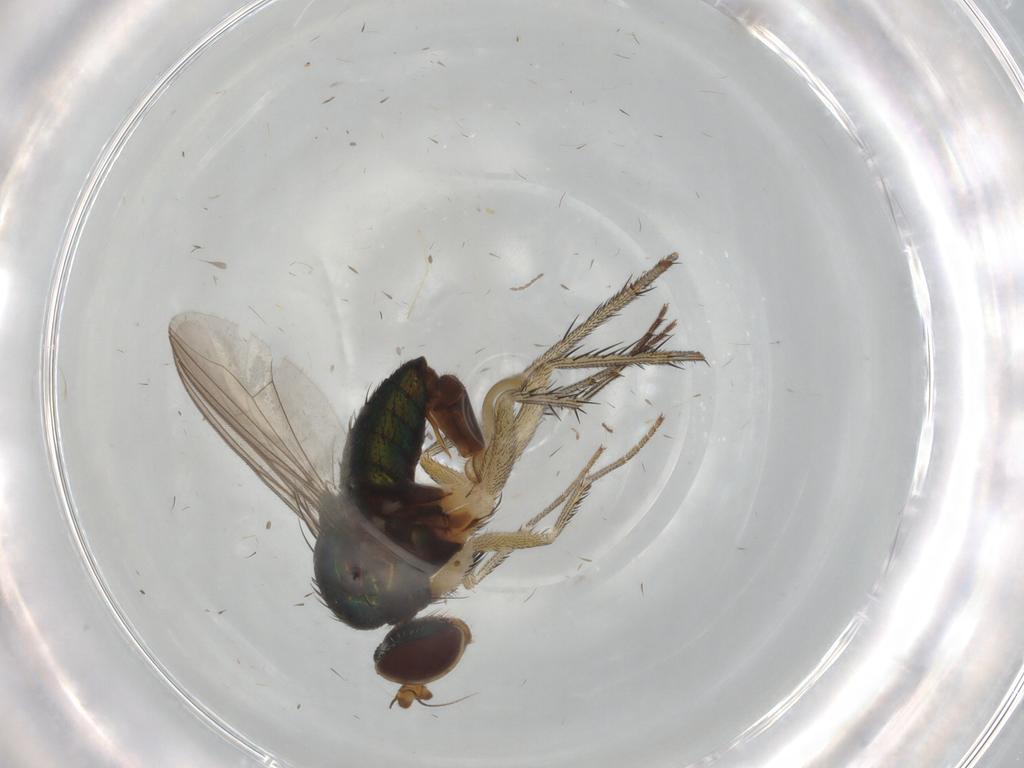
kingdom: Animalia
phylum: Arthropoda
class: Insecta
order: Diptera
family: Dolichopodidae
